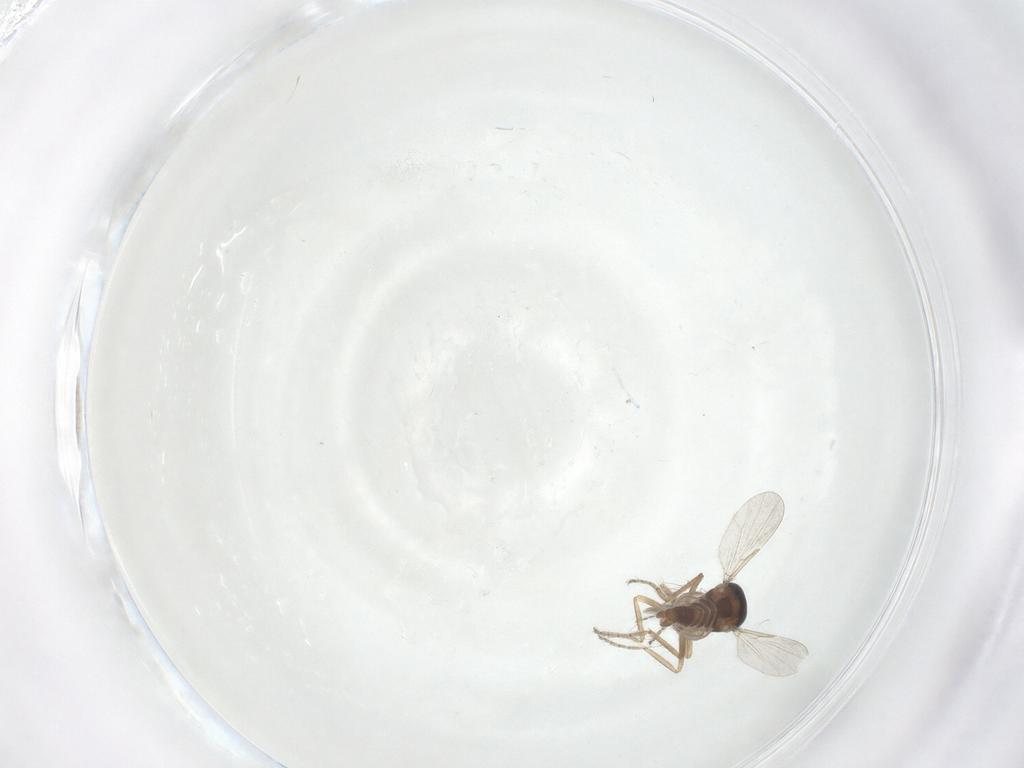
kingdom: Animalia
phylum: Arthropoda
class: Insecta
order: Diptera
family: Ceratopogonidae
